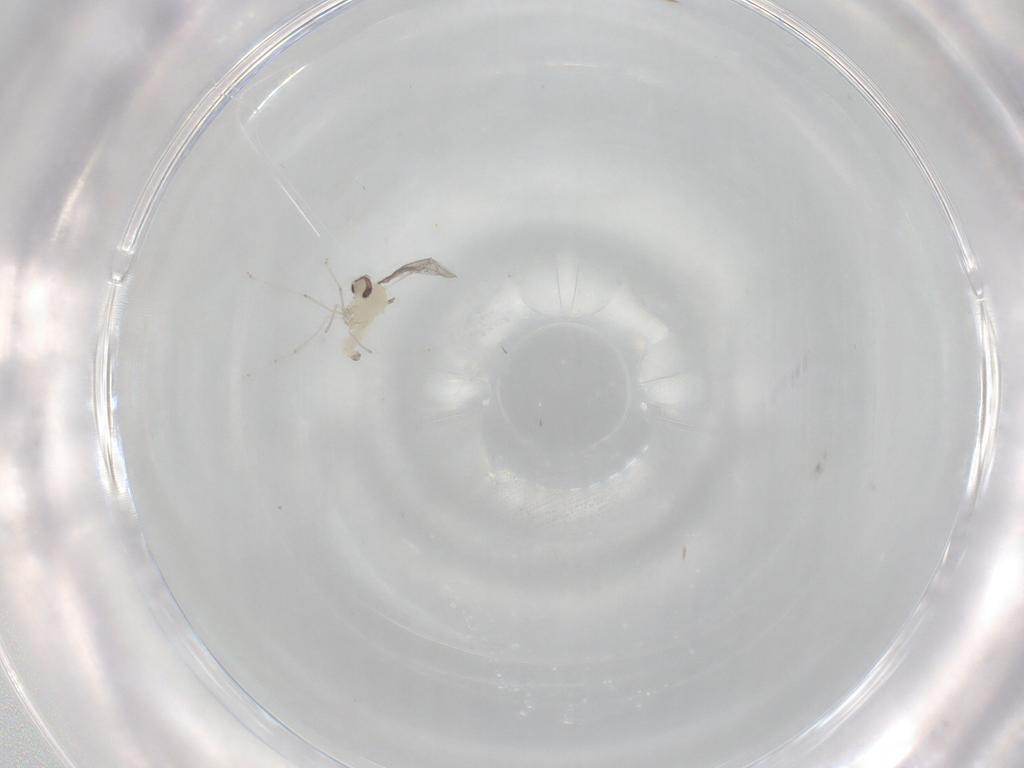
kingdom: Animalia
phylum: Arthropoda
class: Insecta
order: Diptera
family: Cecidomyiidae
